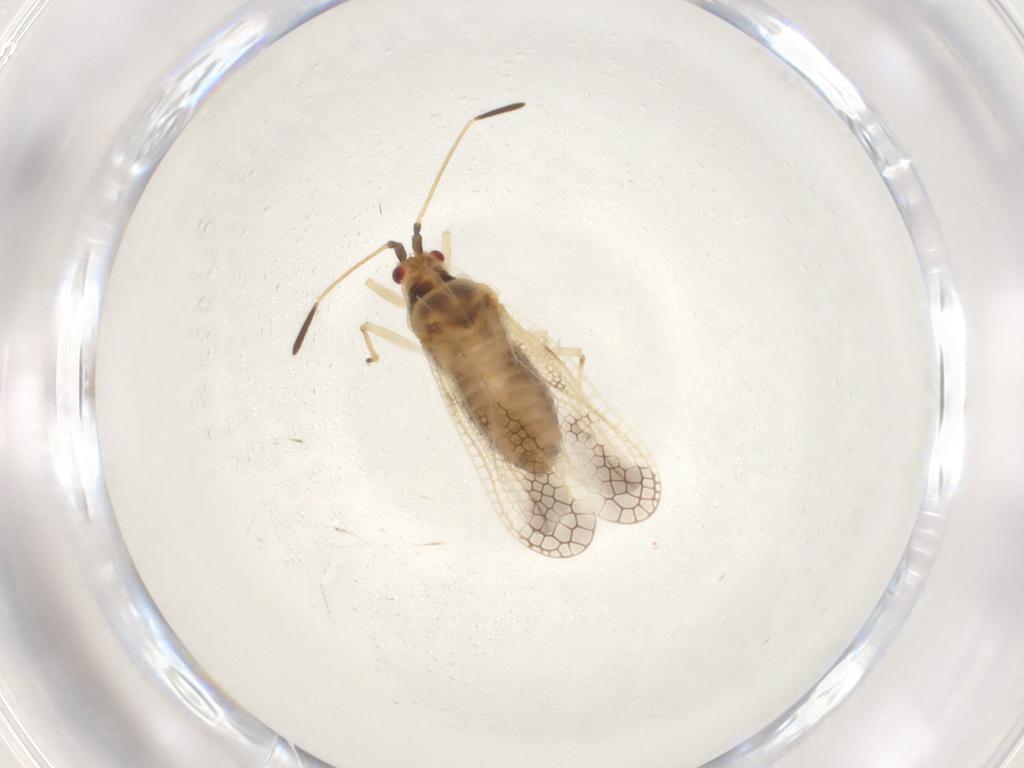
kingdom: Animalia
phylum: Arthropoda
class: Insecta
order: Hemiptera
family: Tingidae
